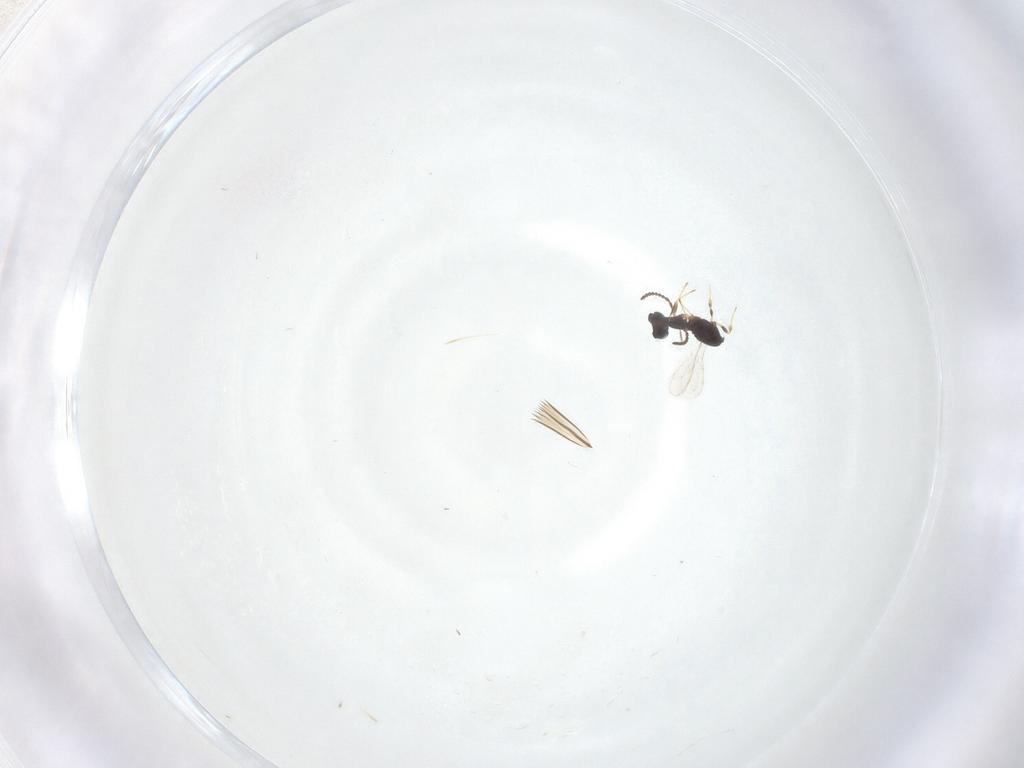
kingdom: Animalia
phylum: Arthropoda
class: Insecta
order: Hymenoptera
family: Scelionidae
